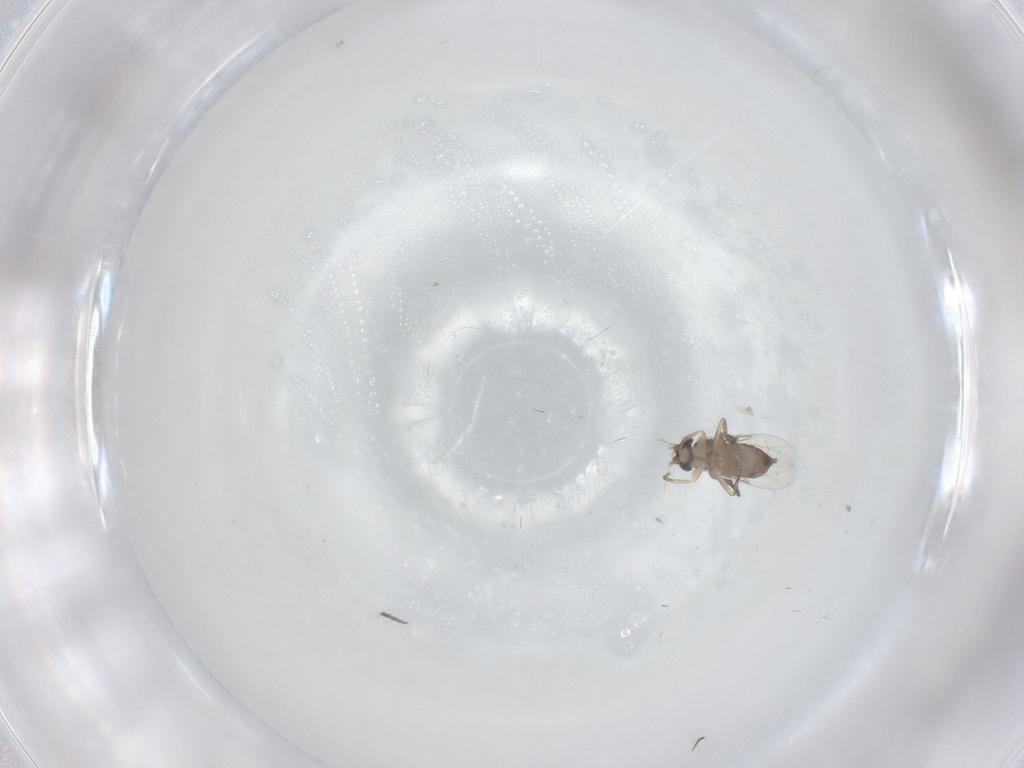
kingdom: Animalia
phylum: Arthropoda
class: Insecta
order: Diptera
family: Phoridae
